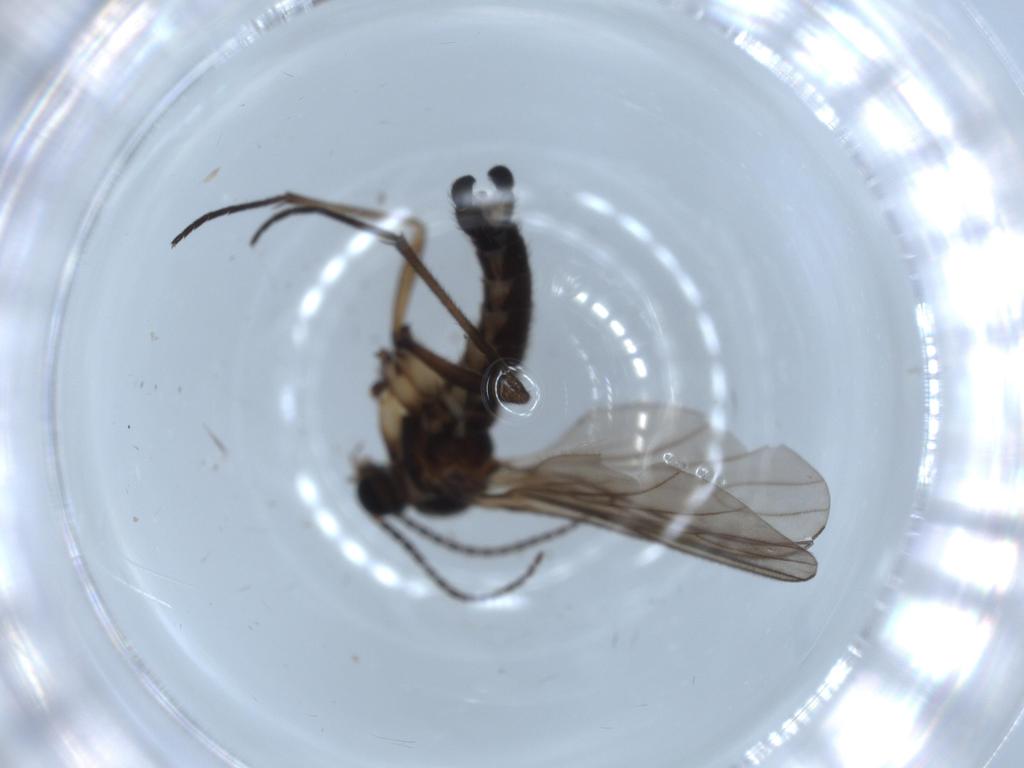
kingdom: Animalia
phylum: Arthropoda
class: Insecta
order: Diptera
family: Sciaridae
